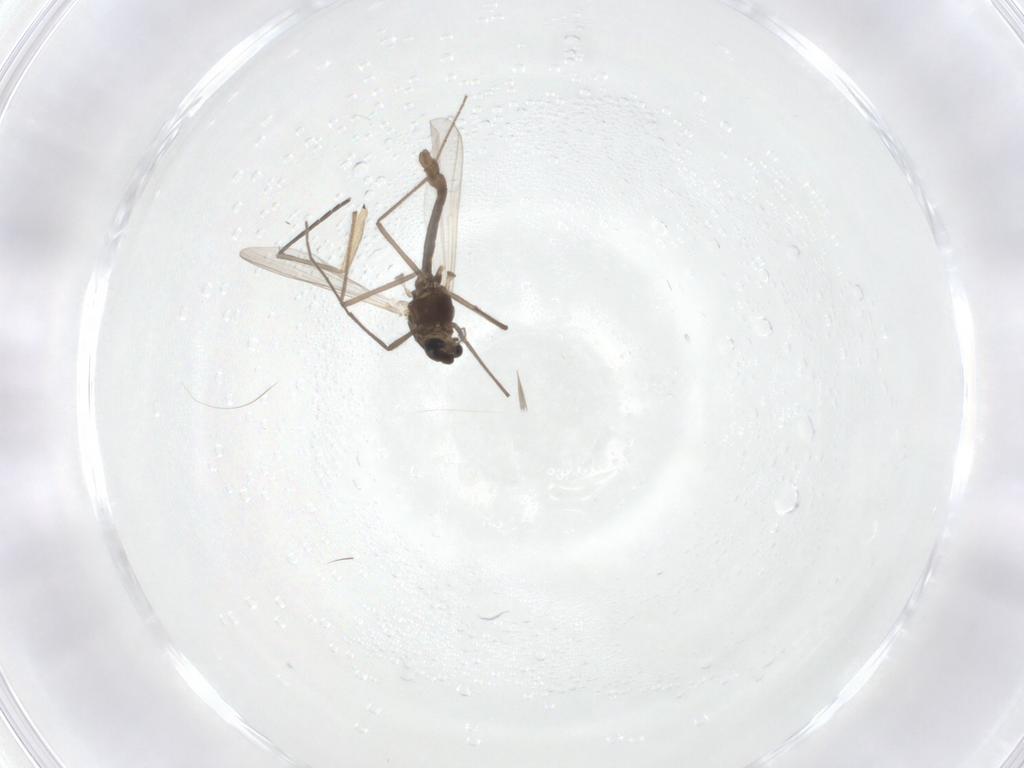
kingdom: Animalia
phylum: Arthropoda
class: Insecta
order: Diptera
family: Chironomidae
